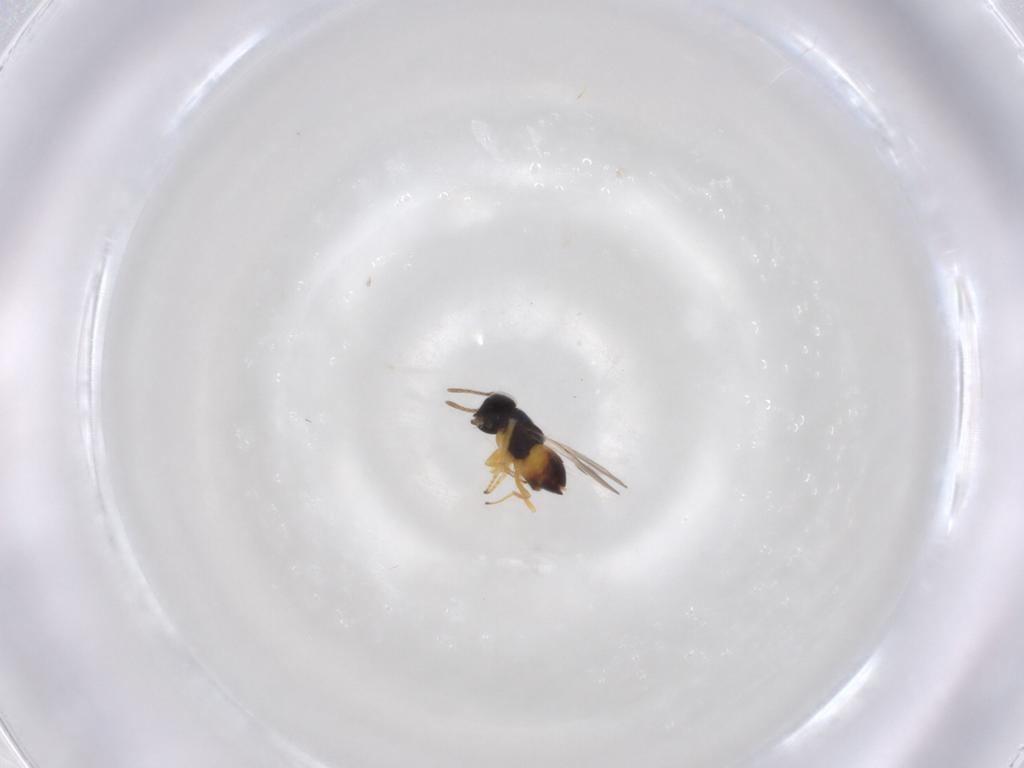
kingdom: Animalia
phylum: Arthropoda
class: Insecta
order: Hymenoptera
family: Encyrtidae
